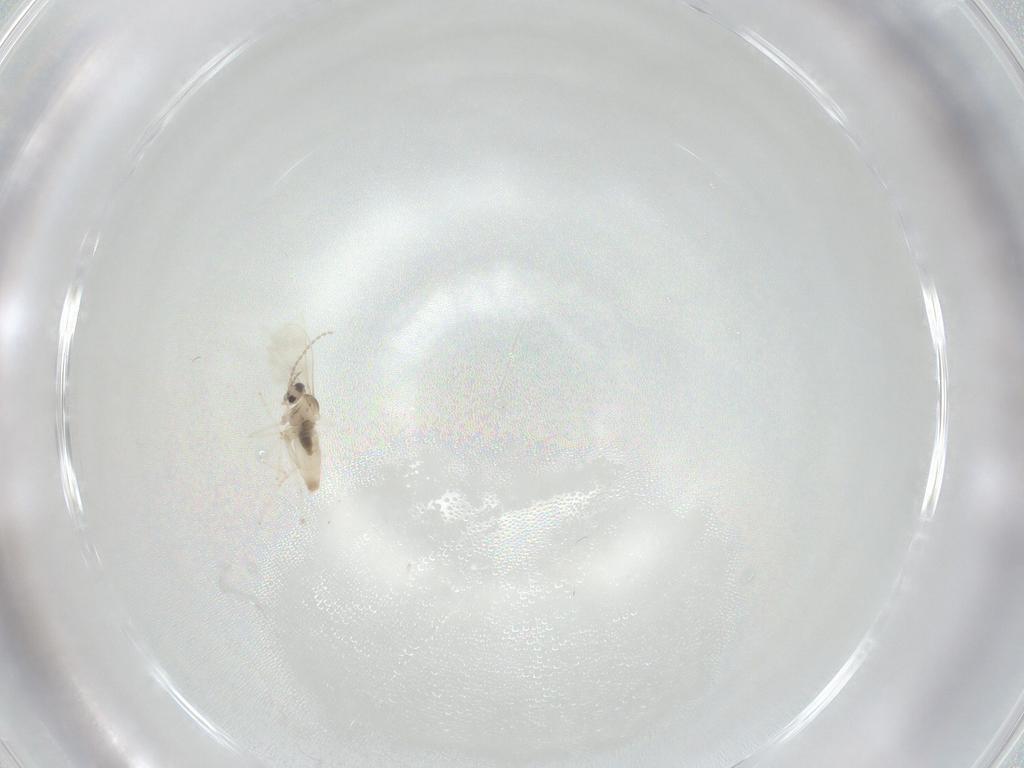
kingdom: Animalia
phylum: Arthropoda
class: Insecta
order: Diptera
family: Cecidomyiidae
